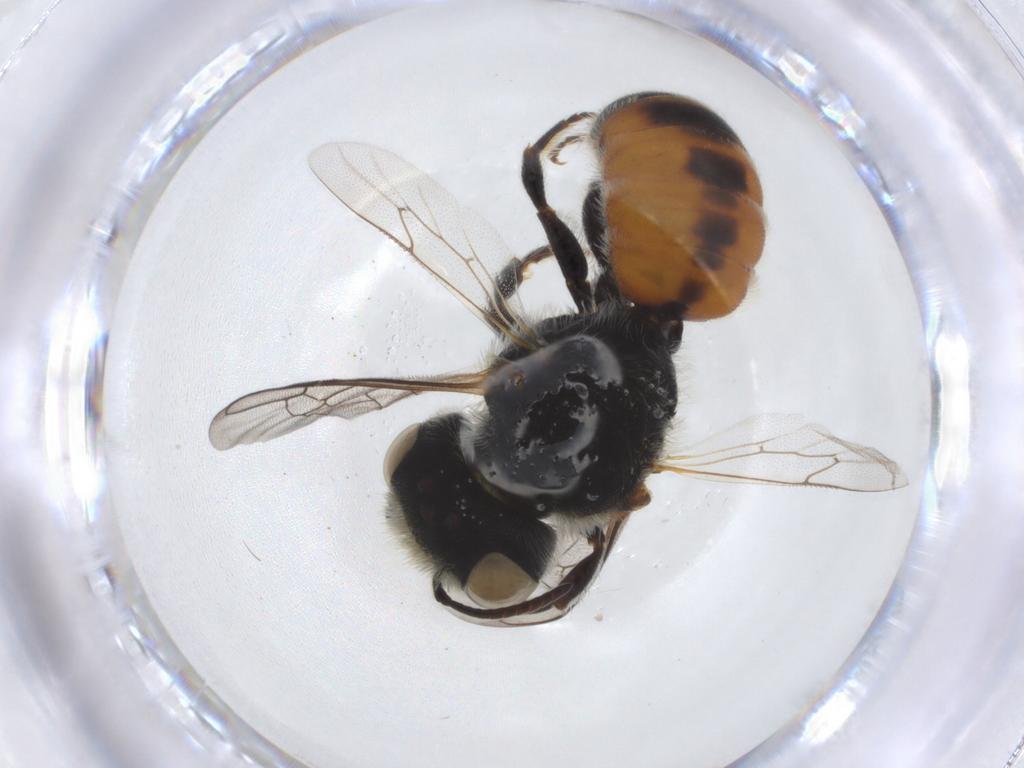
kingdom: Animalia
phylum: Arthropoda
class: Insecta
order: Hymenoptera
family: Megachilidae
